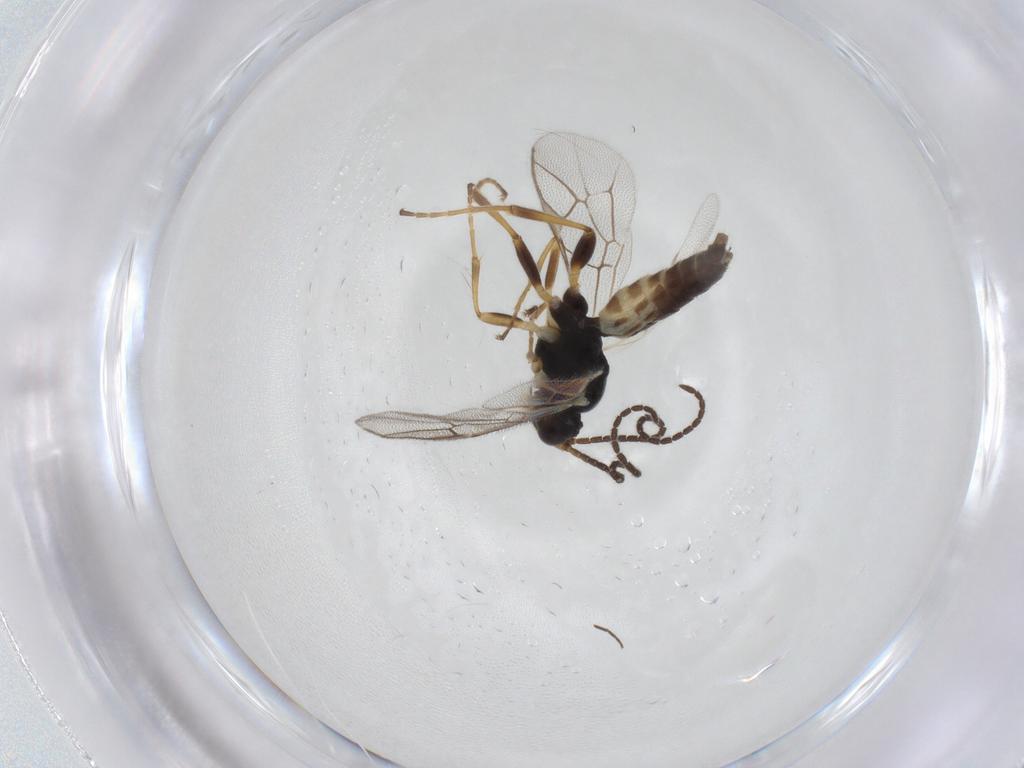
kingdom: Animalia
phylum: Arthropoda
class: Insecta
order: Hymenoptera
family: Ichneumonidae
